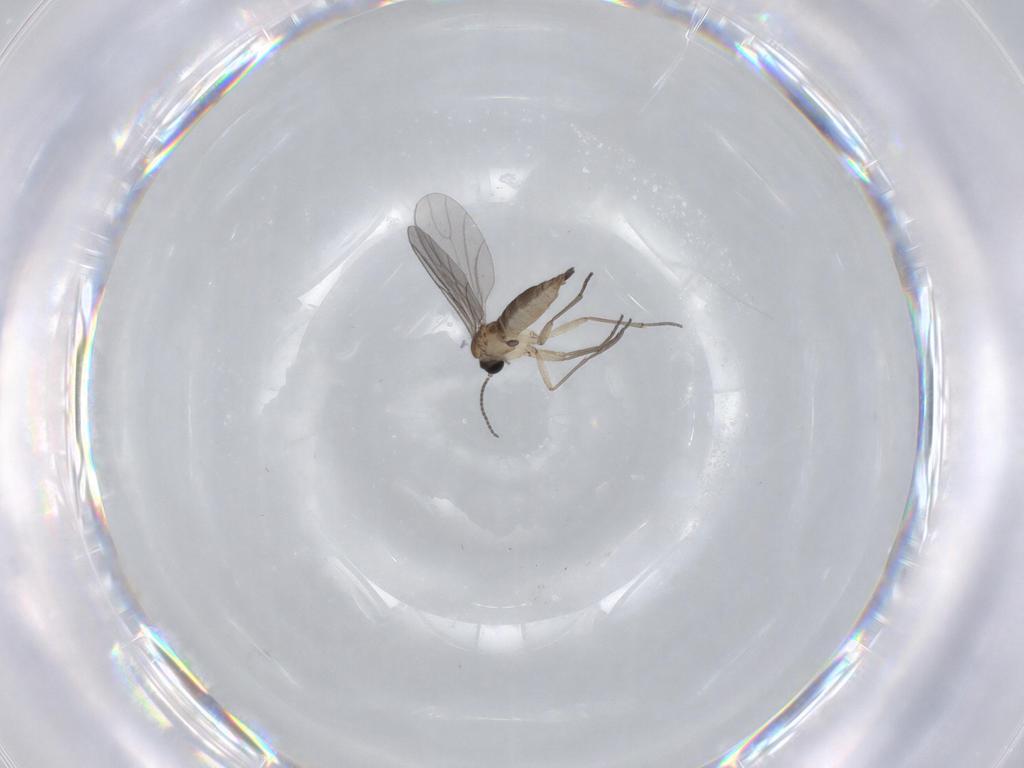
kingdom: Animalia
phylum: Arthropoda
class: Insecta
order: Diptera
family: Sciaridae
